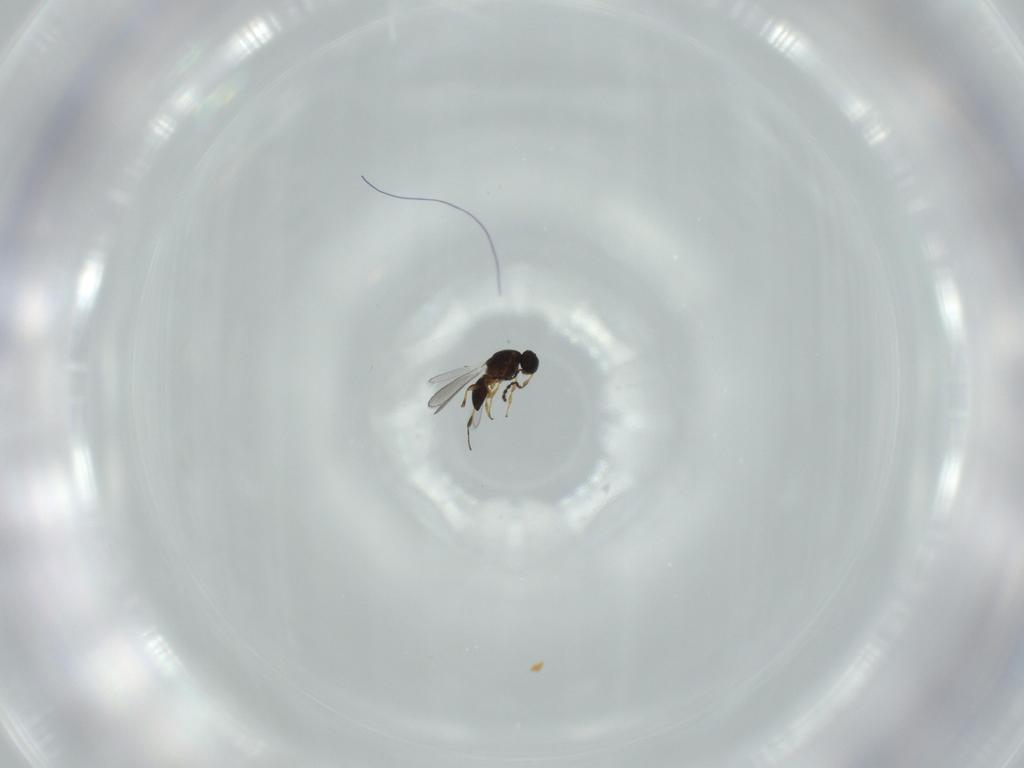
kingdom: Animalia
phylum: Arthropoda
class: Insecta
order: Hymenoptera
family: Platygastridae
